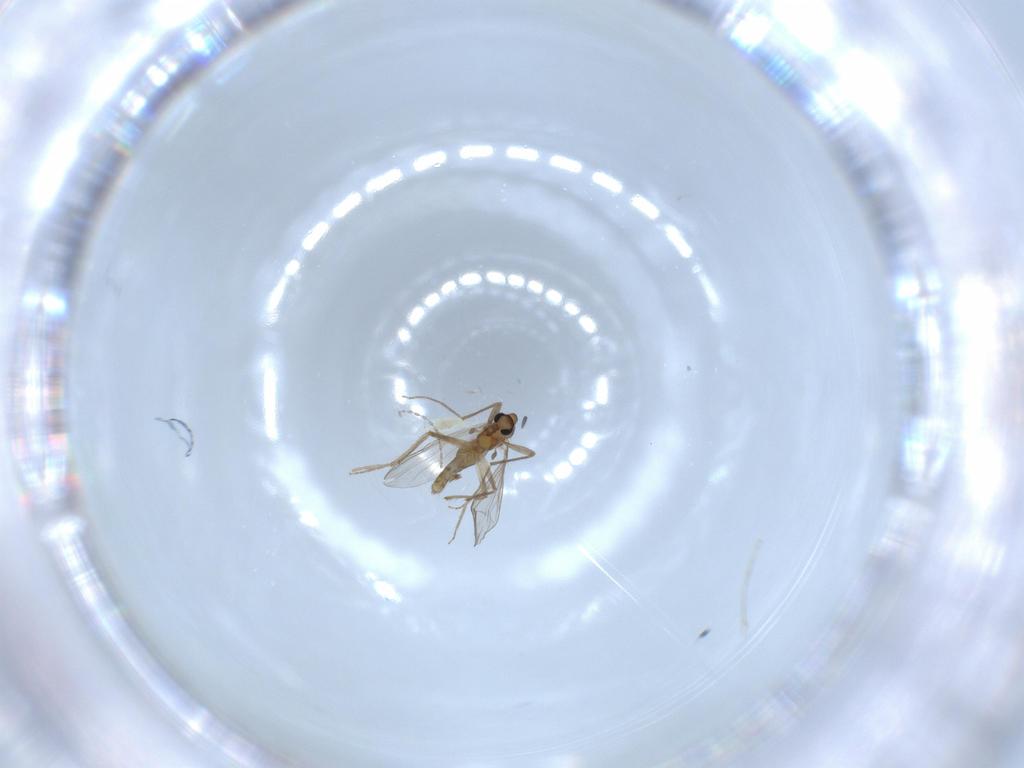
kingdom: Animalia
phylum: Arthropoda
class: Insecta
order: Diptera
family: Chironomidae
